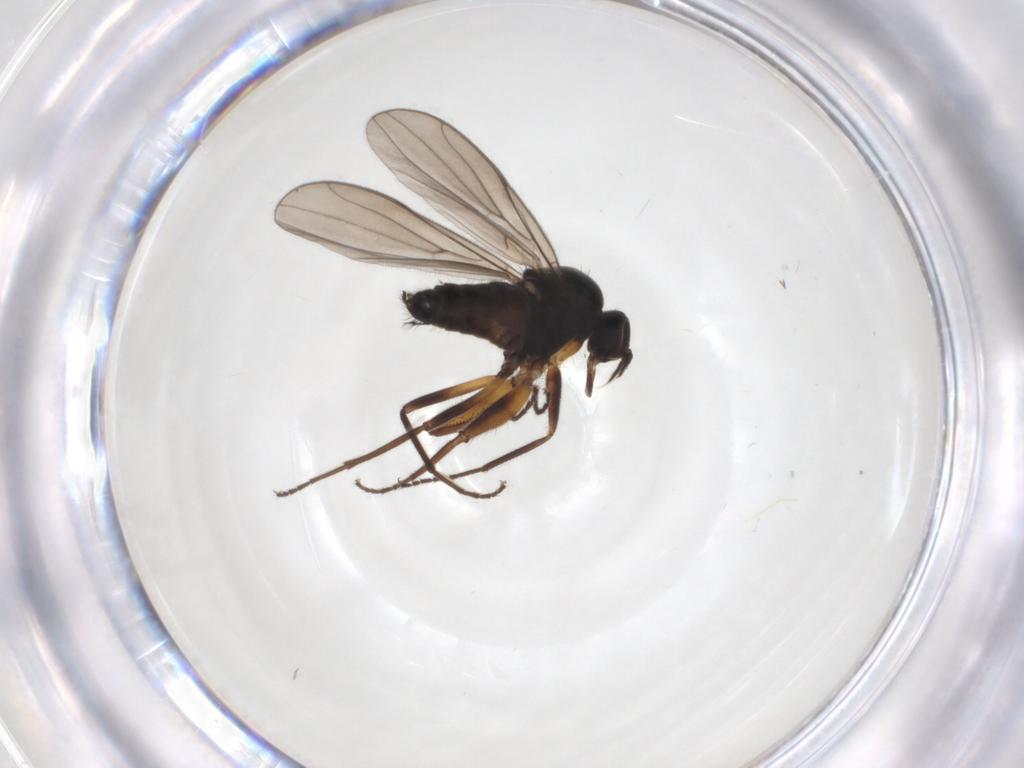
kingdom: Animalia
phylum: Arthropoda
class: Insecta
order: Diptera
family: Hybotidae
